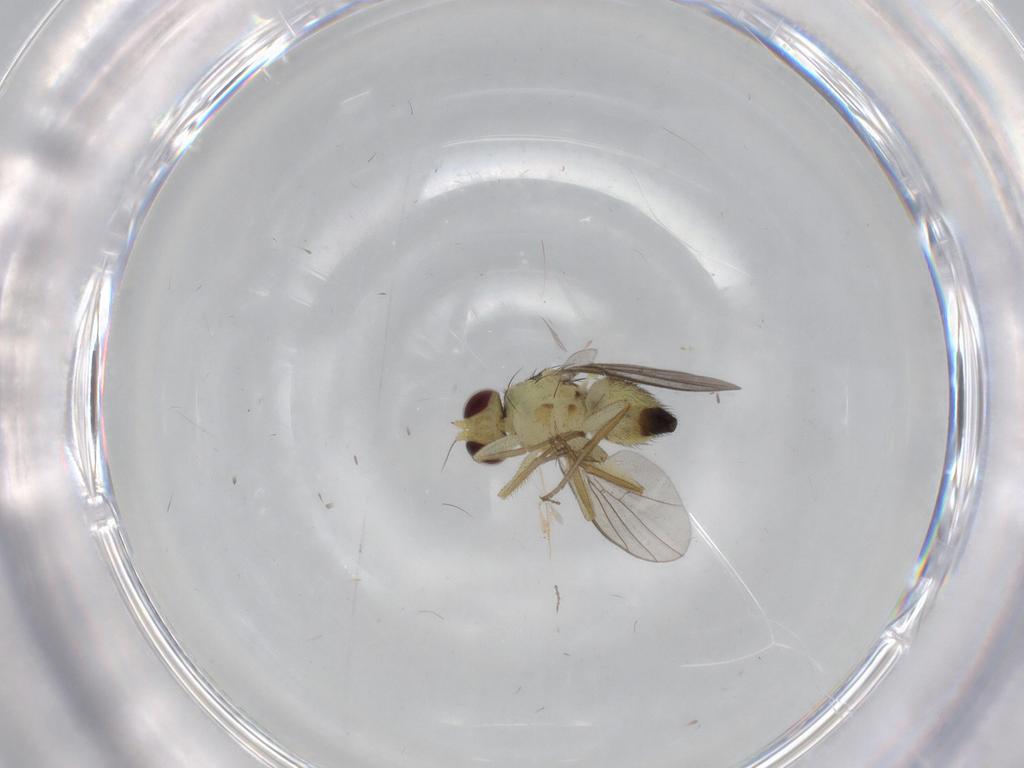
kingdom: Animalia
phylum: Arthropoda
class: Insecta
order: Diptera
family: Agromyzidae
